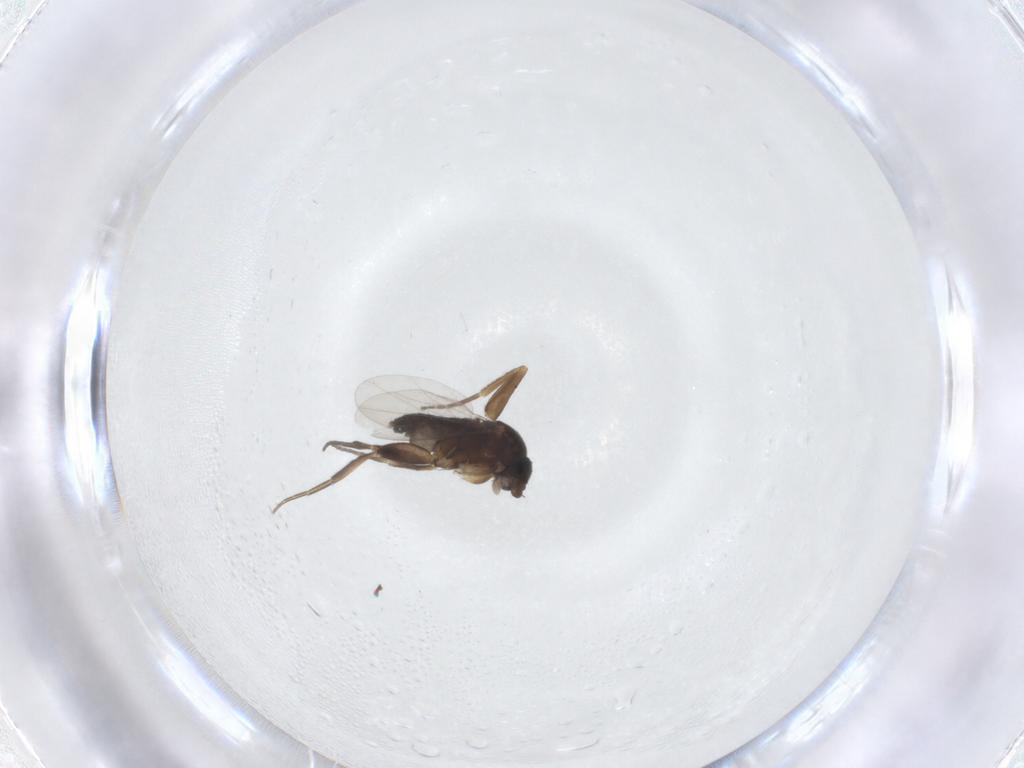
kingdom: Animalia
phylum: Arthropoda
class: Insecta
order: Diptera
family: Phoridae
